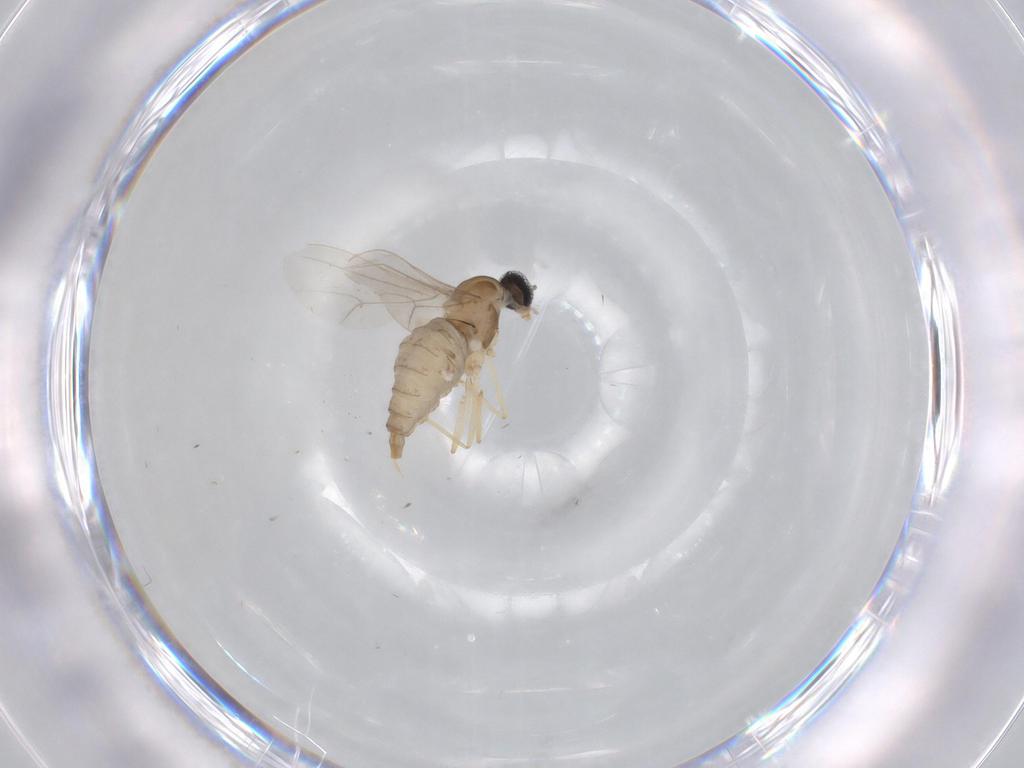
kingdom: Animalia
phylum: Arthropoda
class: Insecta
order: Diptera
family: Cecidomyiidae
